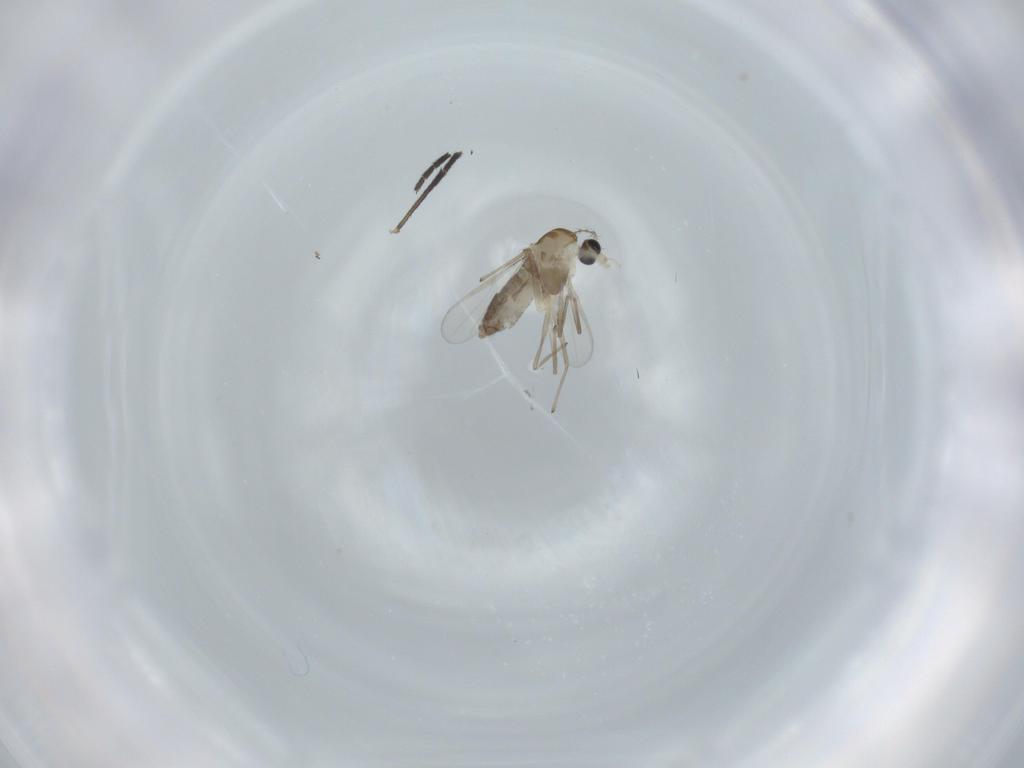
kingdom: Animalia
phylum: Arthropoda
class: Insecta
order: Diptera
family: Chironomidae
